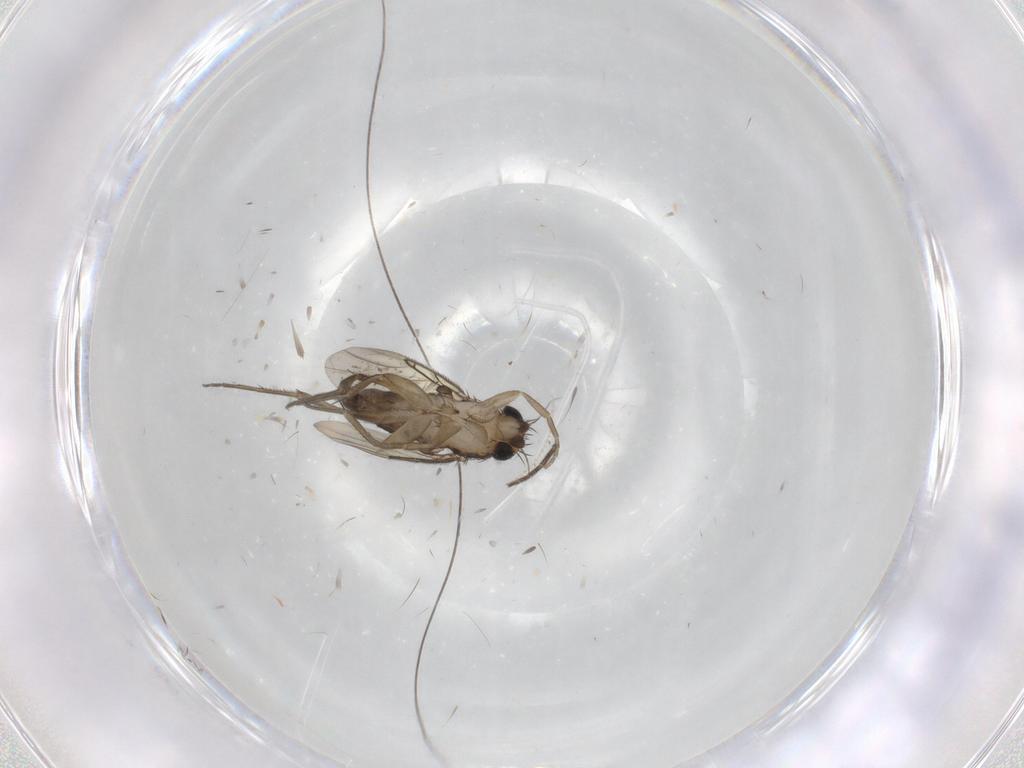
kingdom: Animalia
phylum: Arthropoda
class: Insecta
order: Diptera
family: Phoridae
